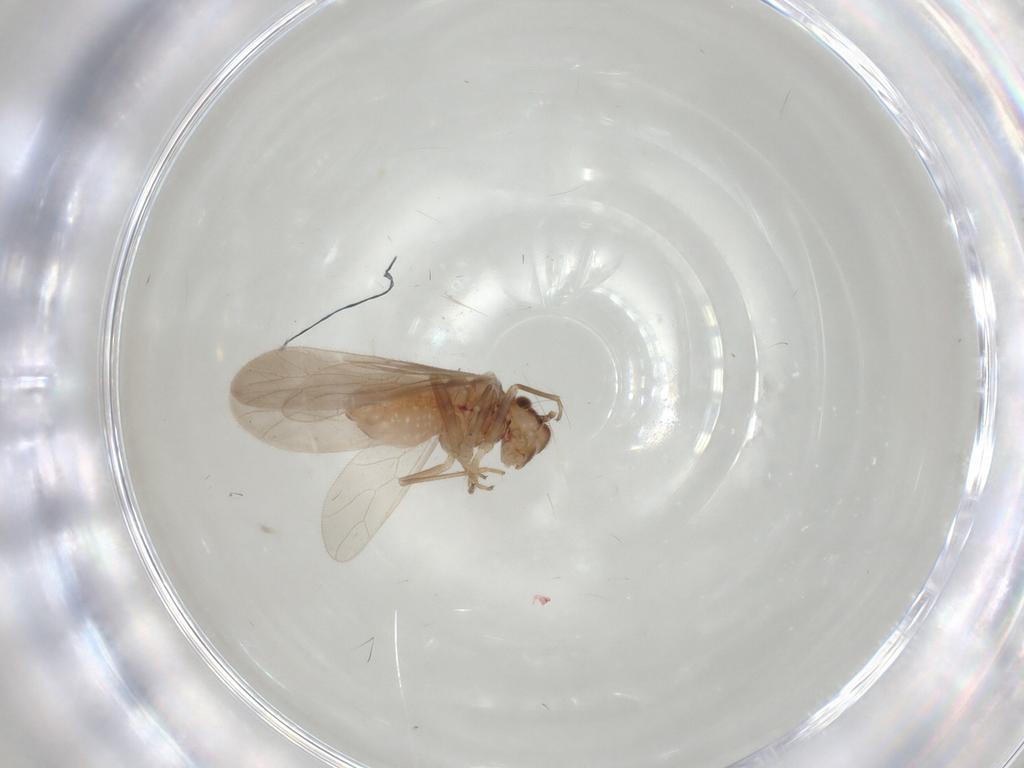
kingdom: Animalia
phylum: Arthropoda
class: Insecta
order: Psocodea
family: Caeciliusidae
